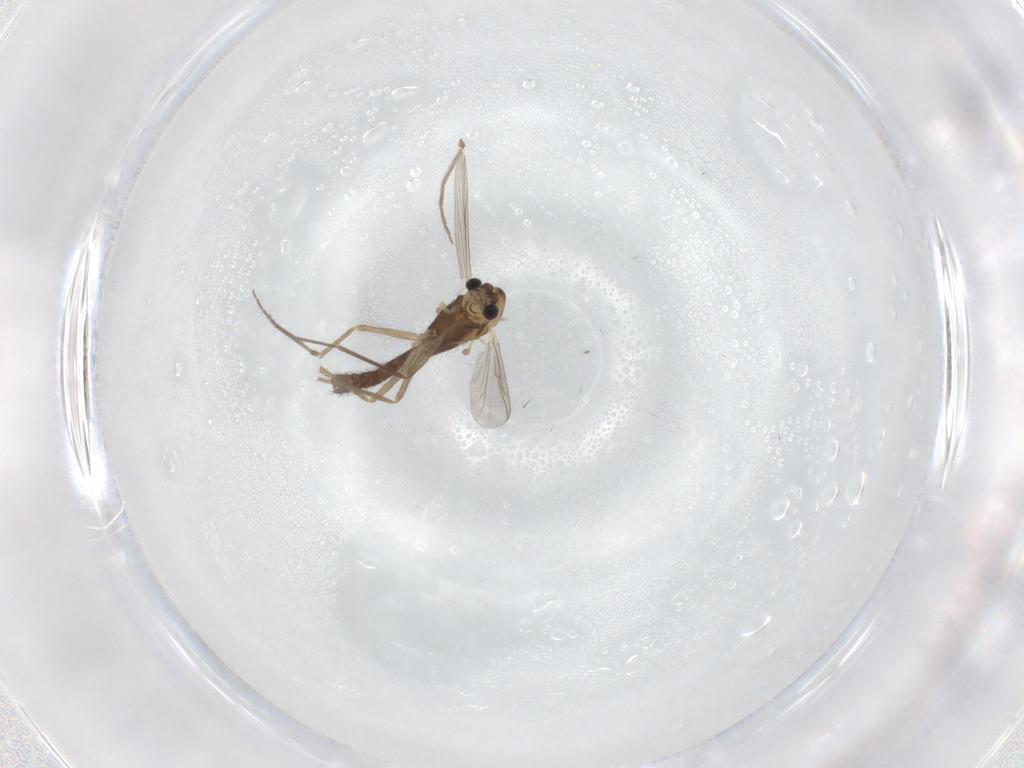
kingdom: Animalia
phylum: Arthropoda
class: Insecta
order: Diptera
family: Chironomidae
